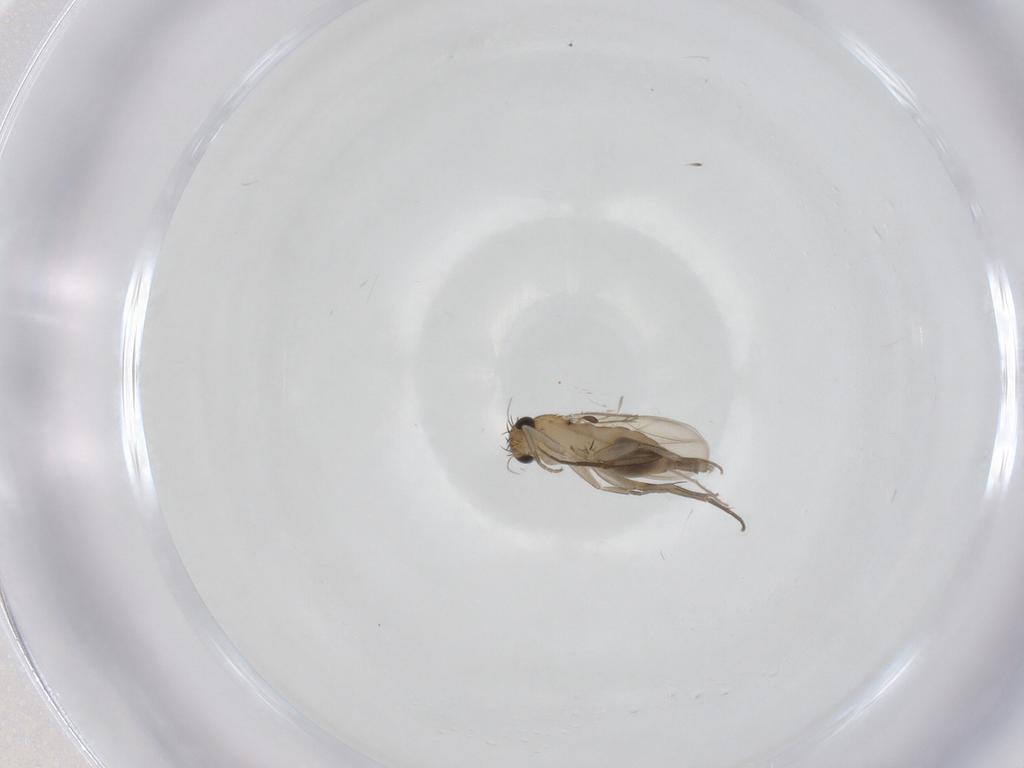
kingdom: Animalia
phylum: Arthropoda
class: Insecta
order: Diptera
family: Phoridae
